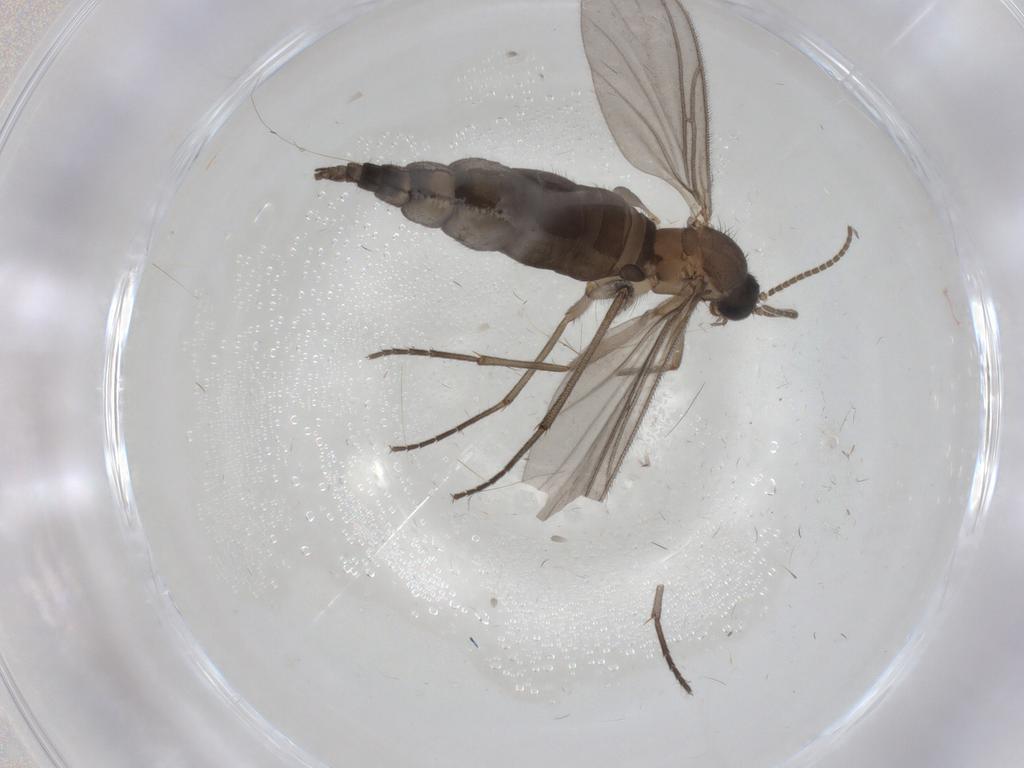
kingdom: Animalia
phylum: Arthropoda
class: Insecta
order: Diptera
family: Sciaridae
